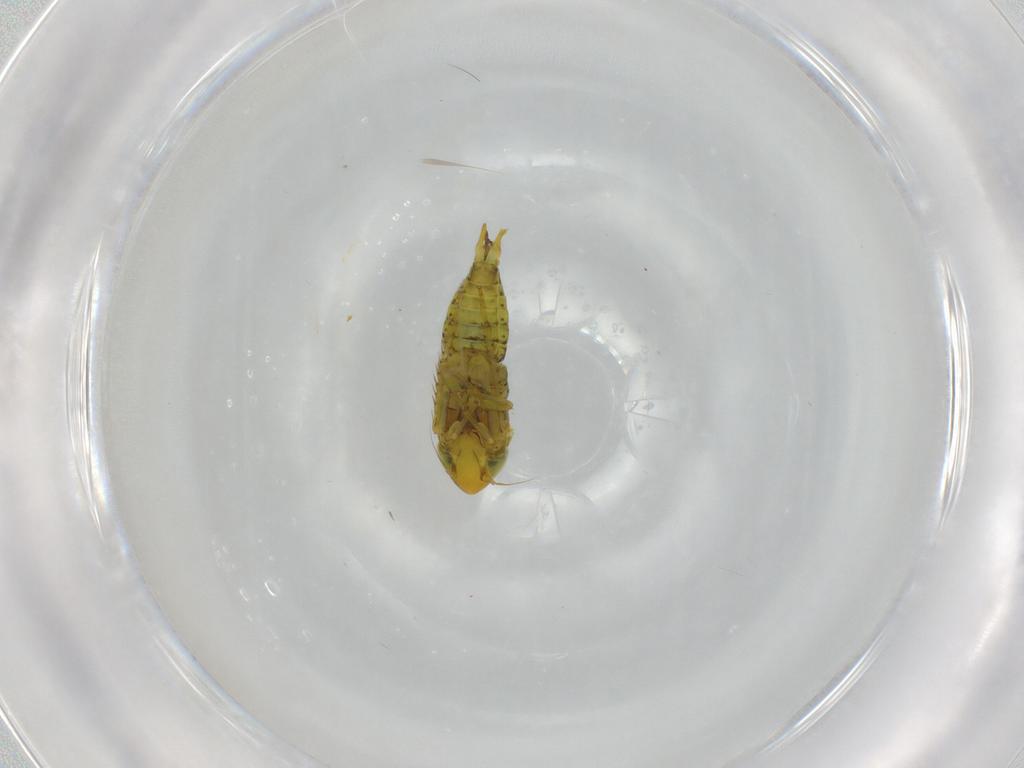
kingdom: Animalia
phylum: Arthropoda
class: Insecta
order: Hemiptera
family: Cicadellidae
